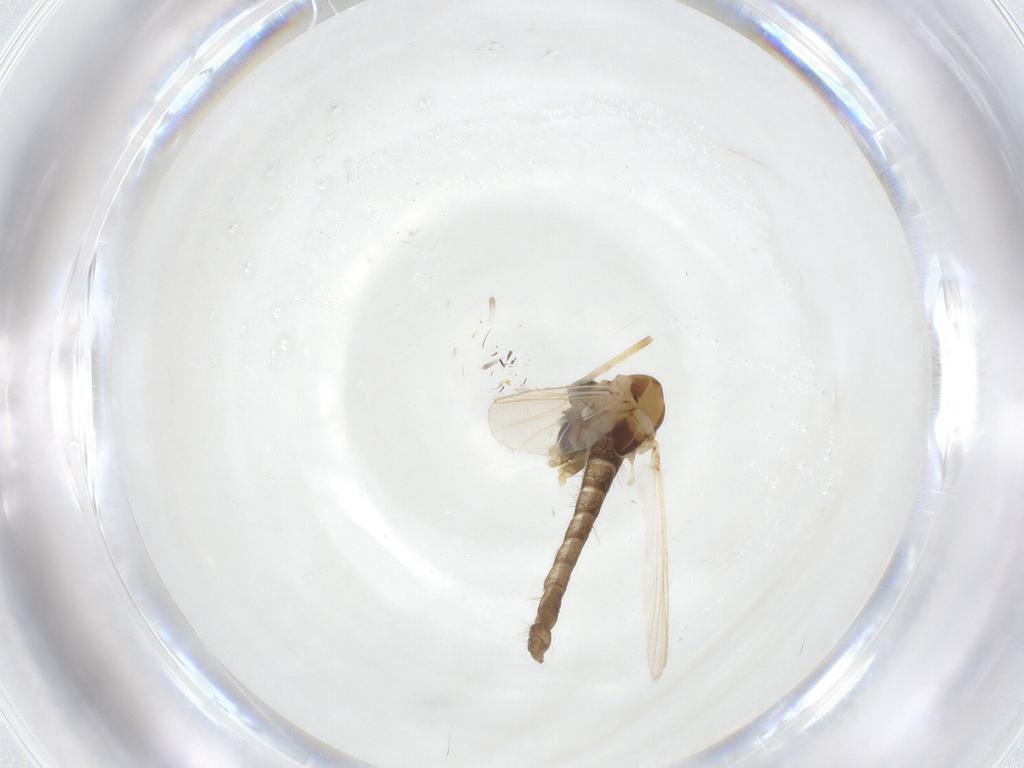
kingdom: Animalia
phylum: Arthropoda
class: Insecta
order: Diptera
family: Chironomidae
